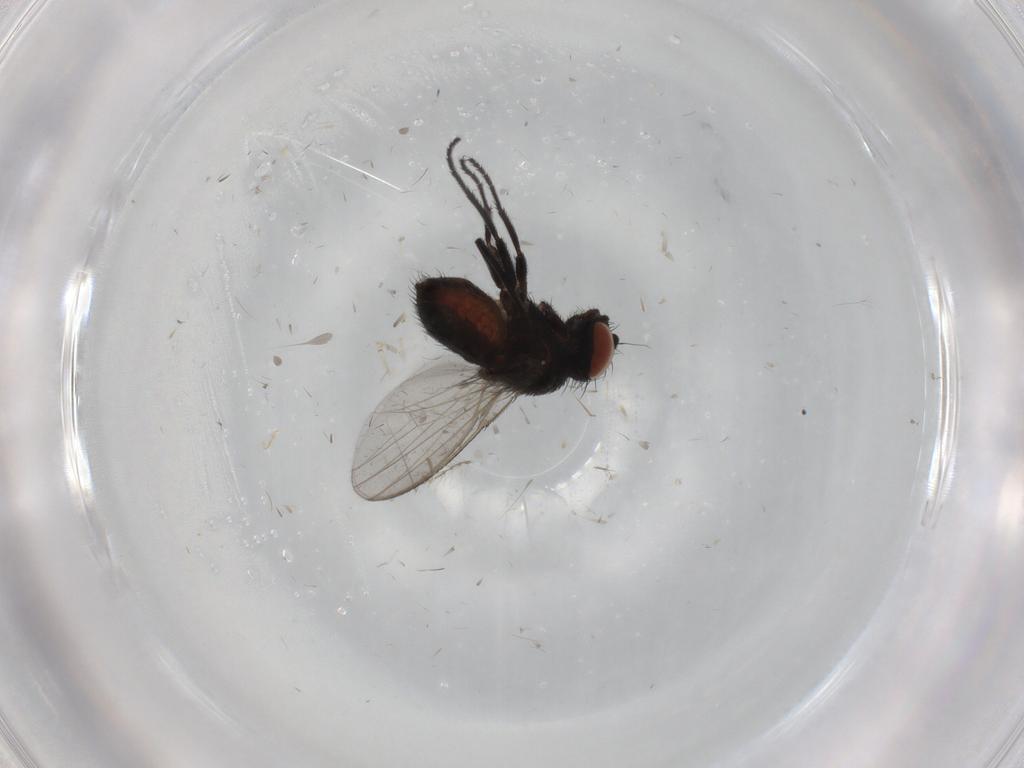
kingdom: Animalia
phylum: Arthropoda
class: Insecta
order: Diptera
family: Milichiidae
